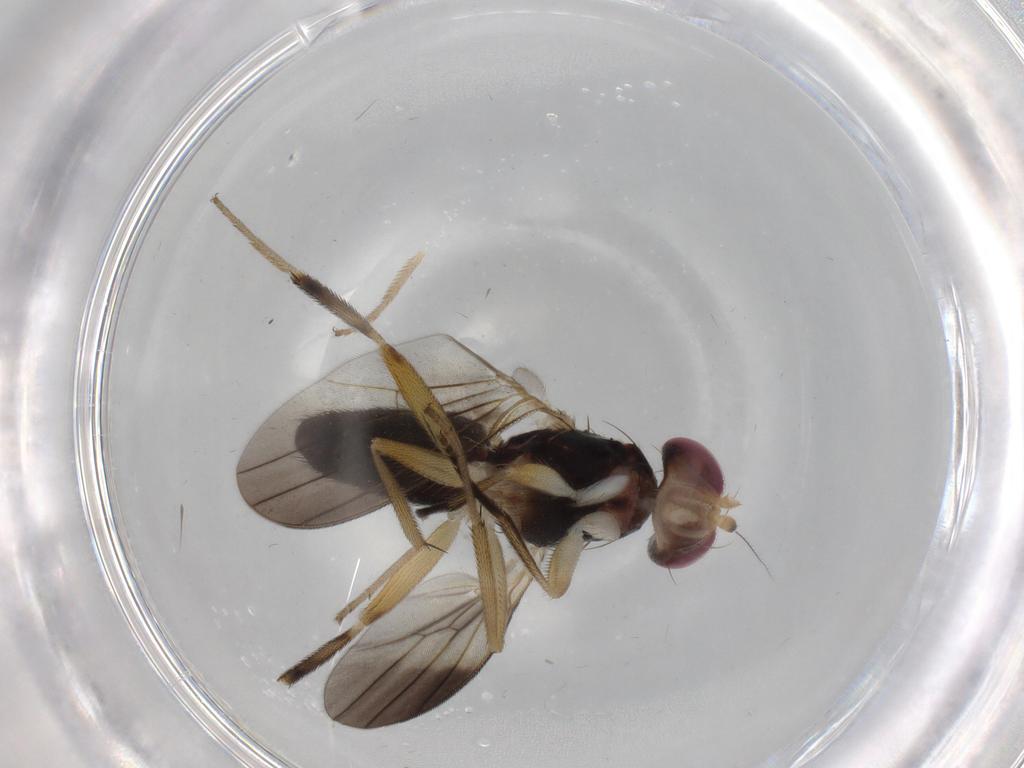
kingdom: Animalia
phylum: Arthropoda
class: Insecta
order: Diptera
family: Clusiidae
